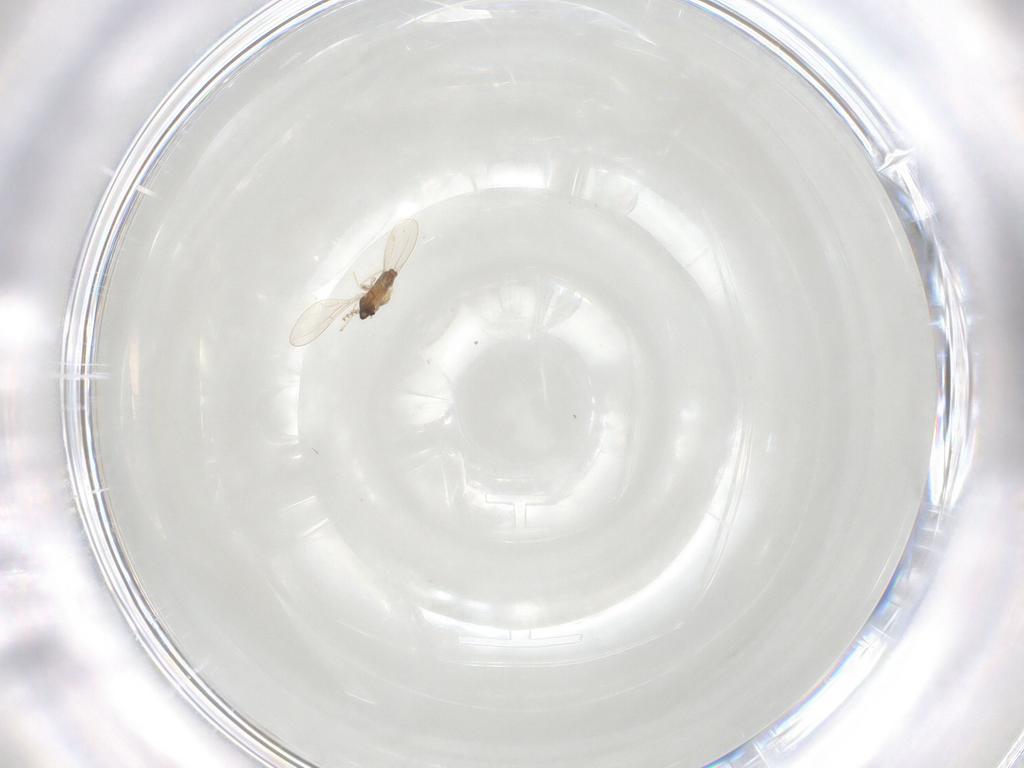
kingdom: Animalia
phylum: Arthropoda
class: Insecta
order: Diptera
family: Cecidomyiidae
